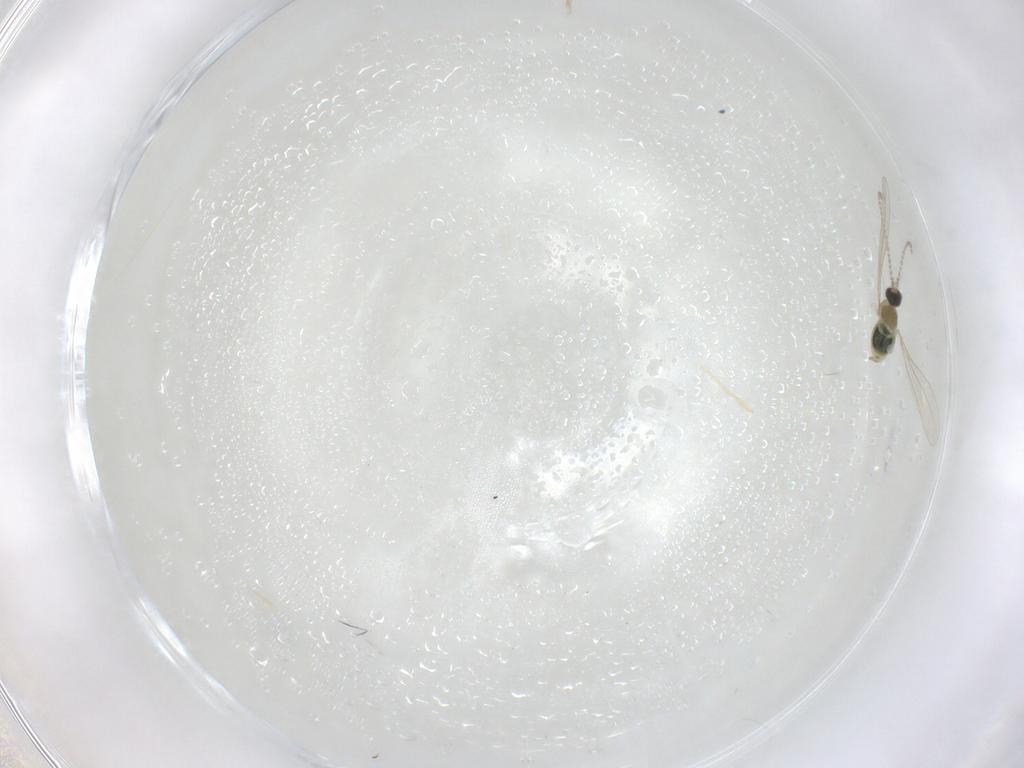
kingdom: Animalia
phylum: Arthropoda
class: Insecta
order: Diptera
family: Cecidomyiidae
